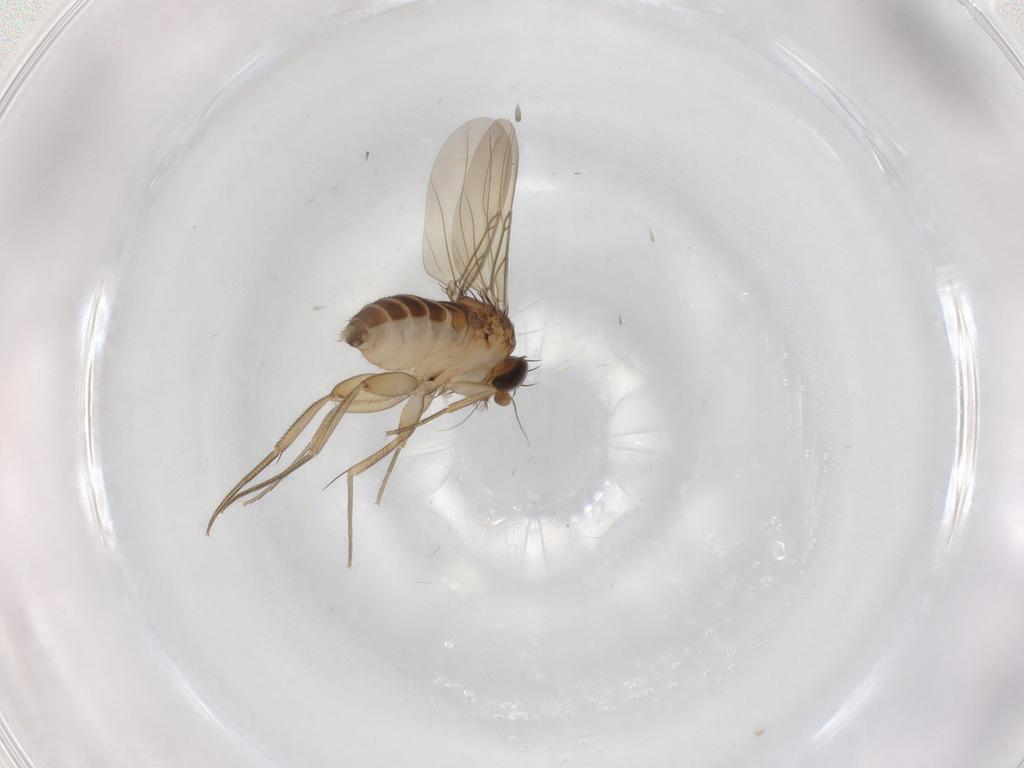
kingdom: Animalia
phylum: Arthropoda
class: Insecta
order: Diptera
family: Phoridae
